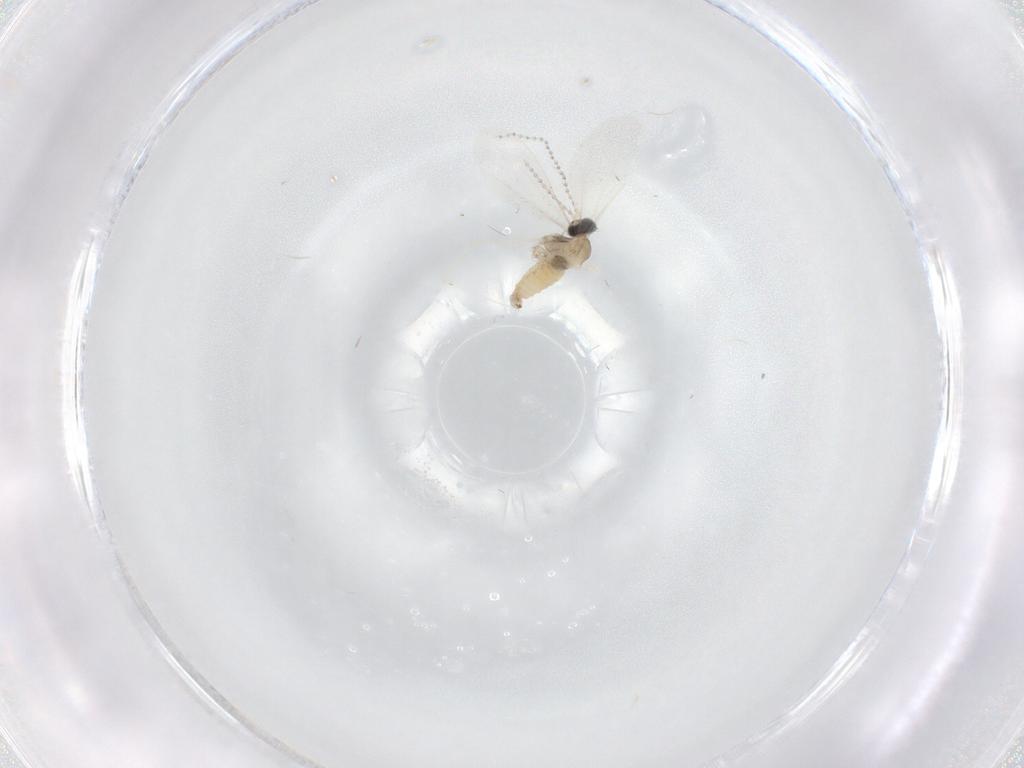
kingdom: Animalia
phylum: Arthropoda
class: Insecta
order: Diptera
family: Cecidomyiidae
